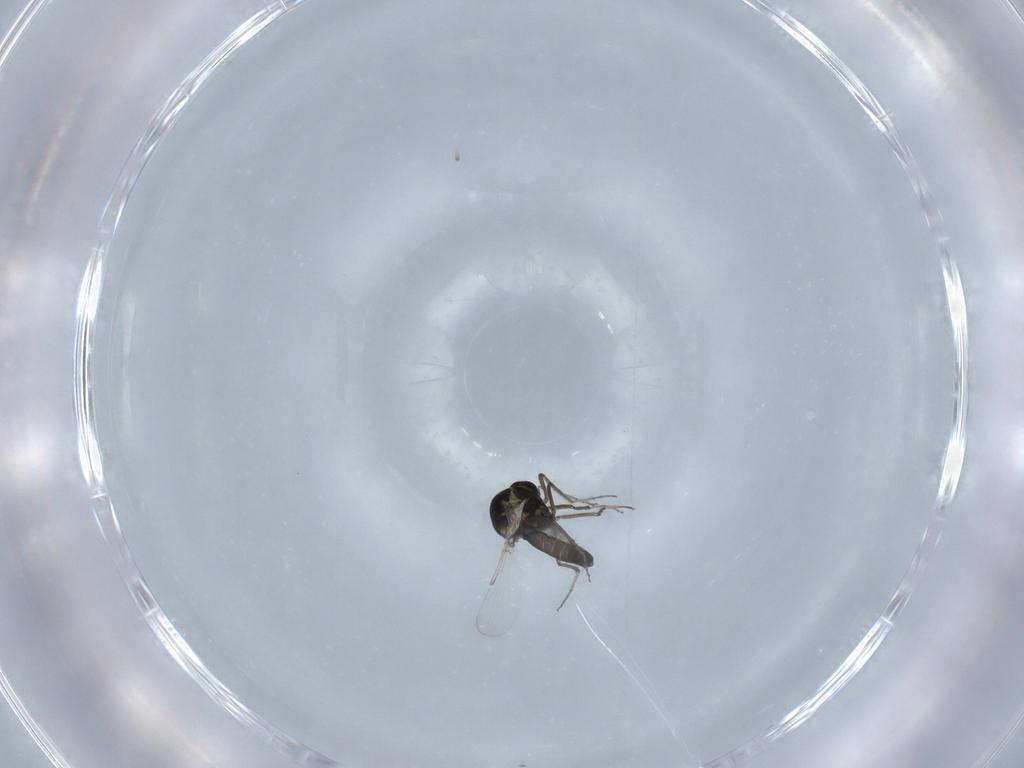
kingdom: Animalia
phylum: Arthropoda
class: Insecta
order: Diptera
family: Ceratopogonidae
